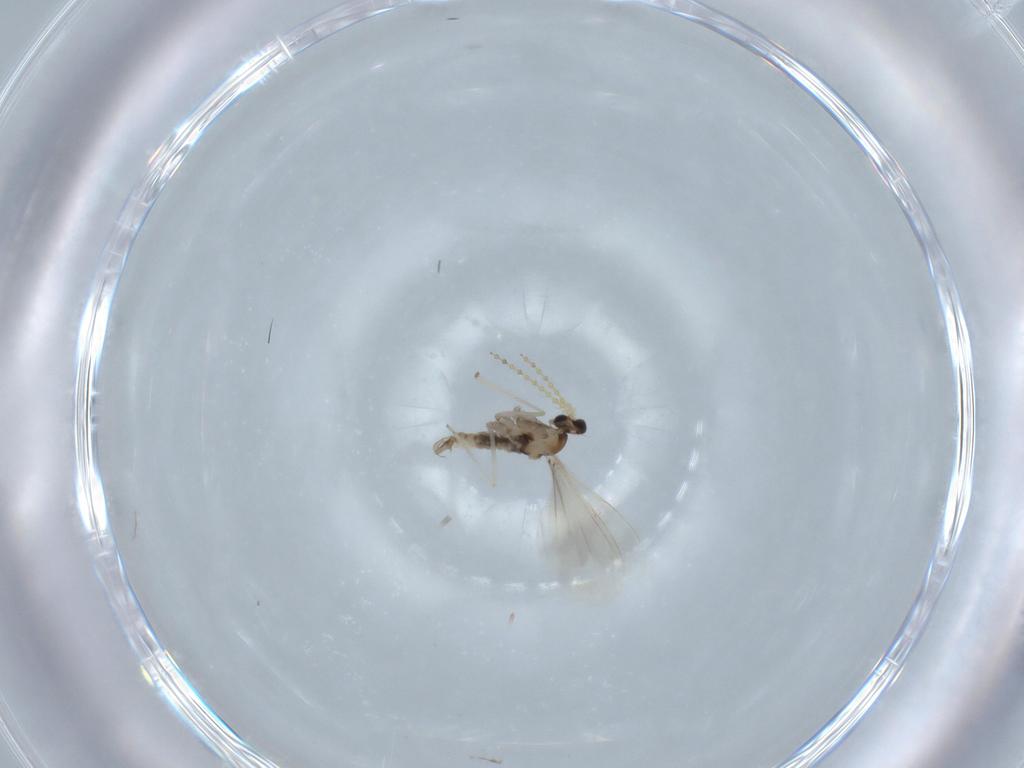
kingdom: Animalia
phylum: Arthropoda
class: Insecta
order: Diptera
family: Cecidomyiidae
